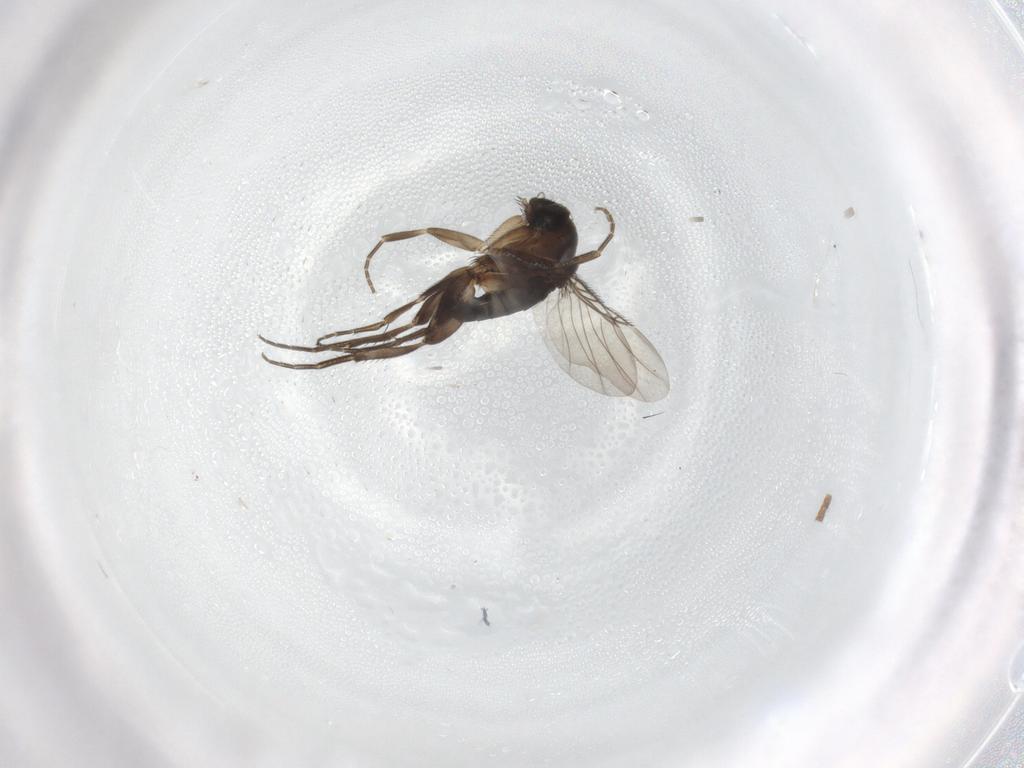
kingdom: Animalia
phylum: Arthropoda
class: Insecta
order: Diptera
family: Phoridae
